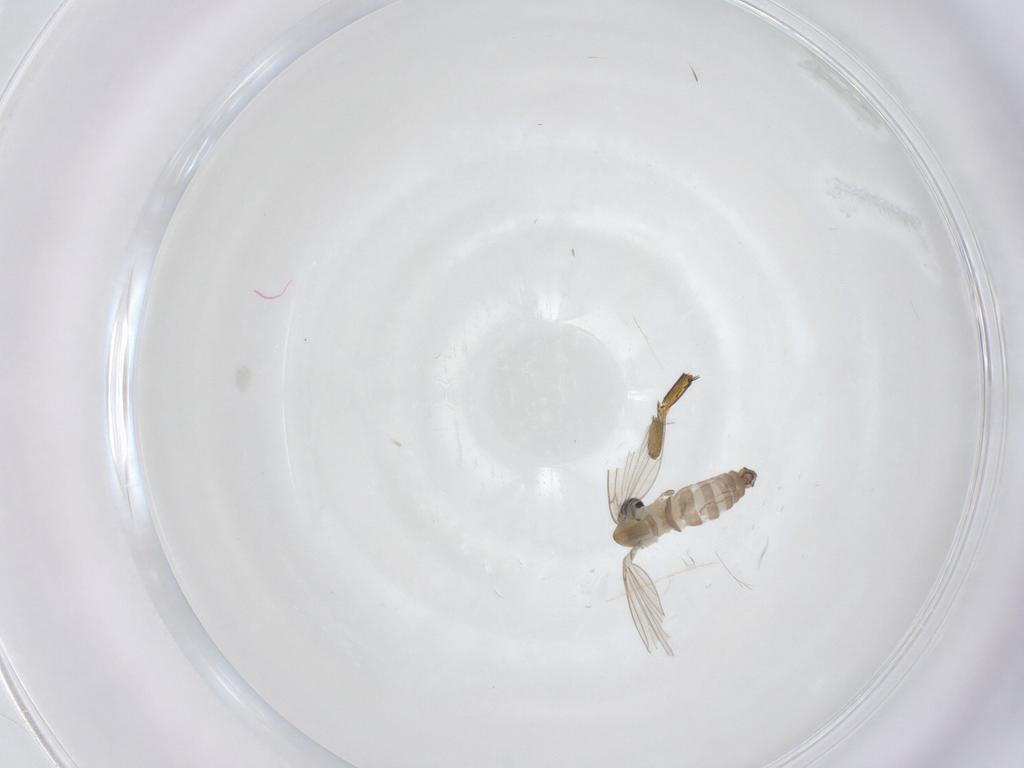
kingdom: Animalia
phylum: Arthropoda
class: Insecta
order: Diptera
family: Phoridae
